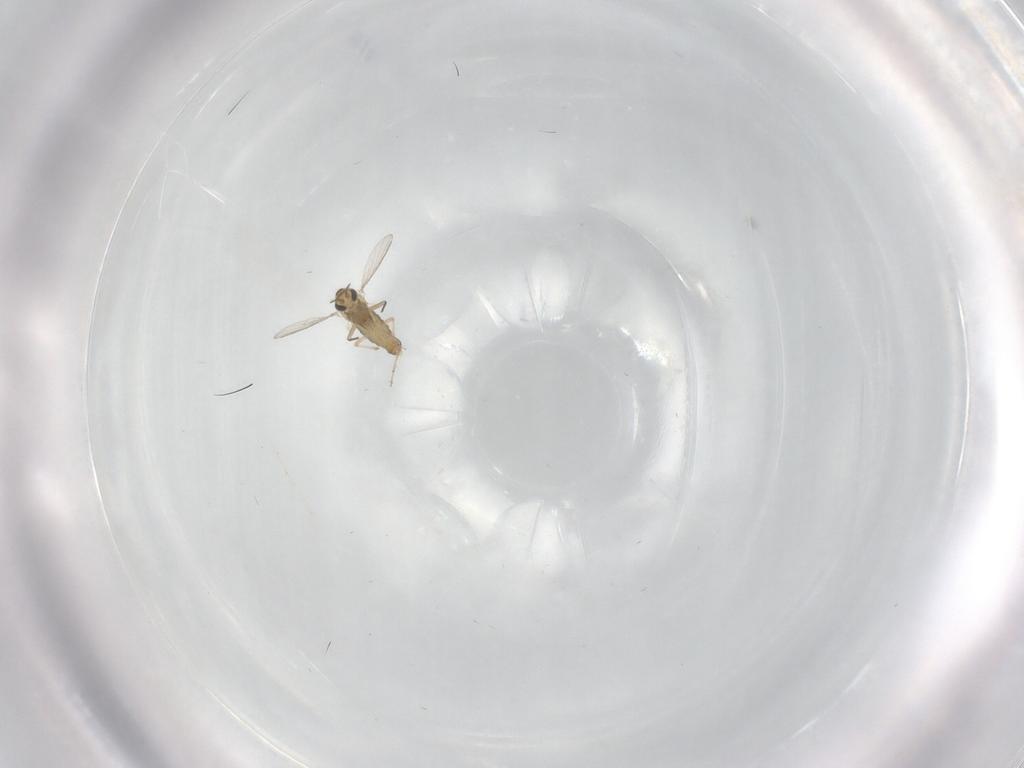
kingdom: Animalia
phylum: Arthropoda
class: Insecta
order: Diptera
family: Chironomidae
